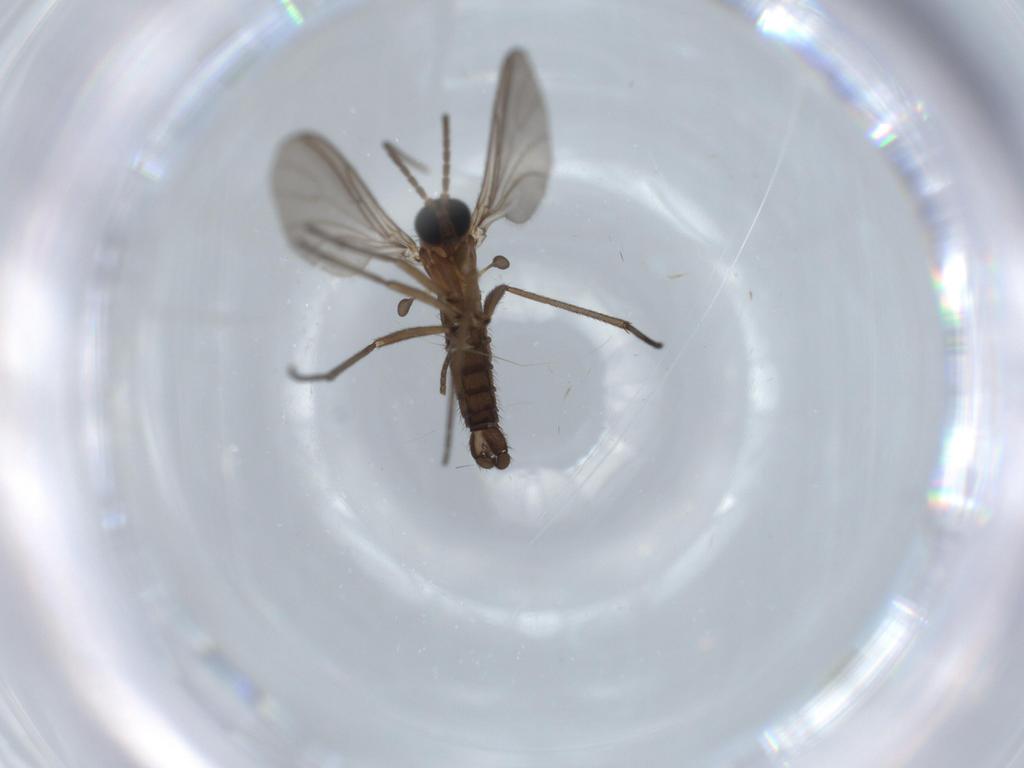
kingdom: Animalia
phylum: Arthropoda
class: Insecta
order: Diptera
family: Sciaridae
